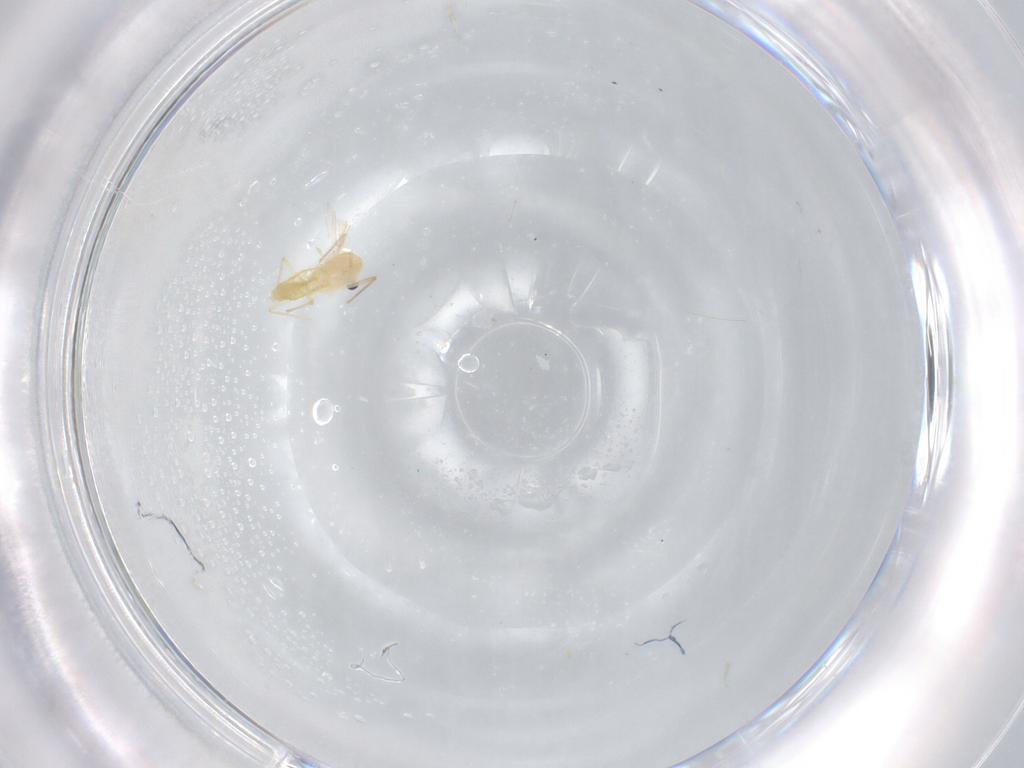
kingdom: Animalia
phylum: Arthropoda
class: Insecta
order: Diptera
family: Chironomidae
